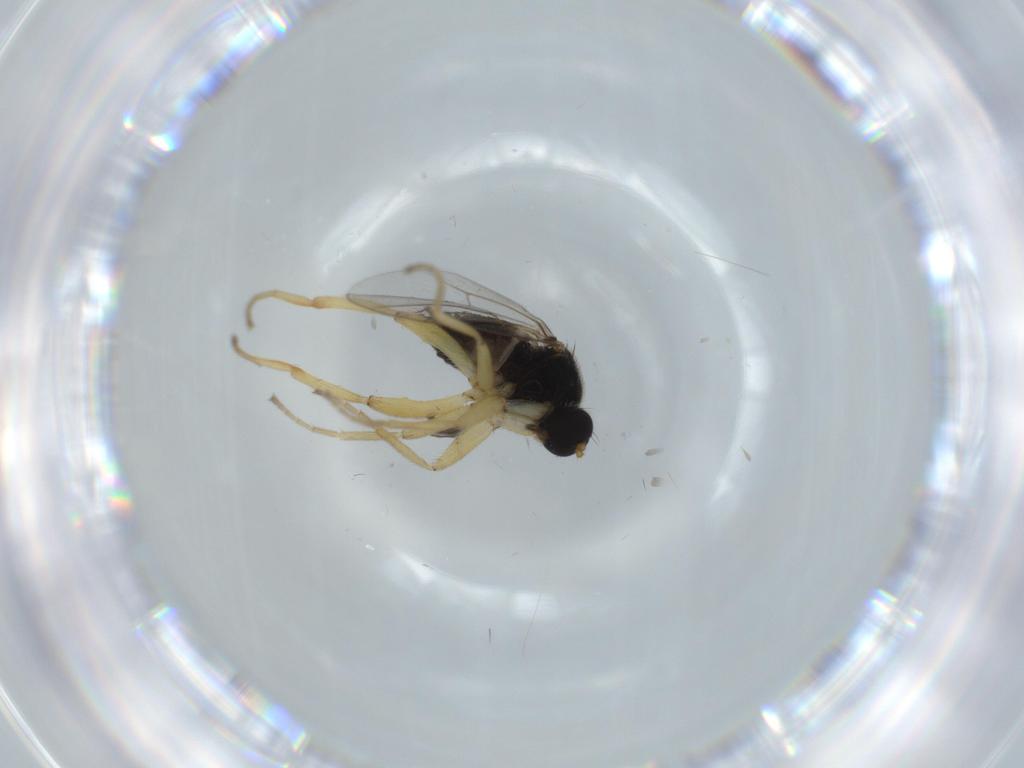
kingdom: Animalia
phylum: Arthropoda
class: Insecta
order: Diptera
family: Hybotidae
